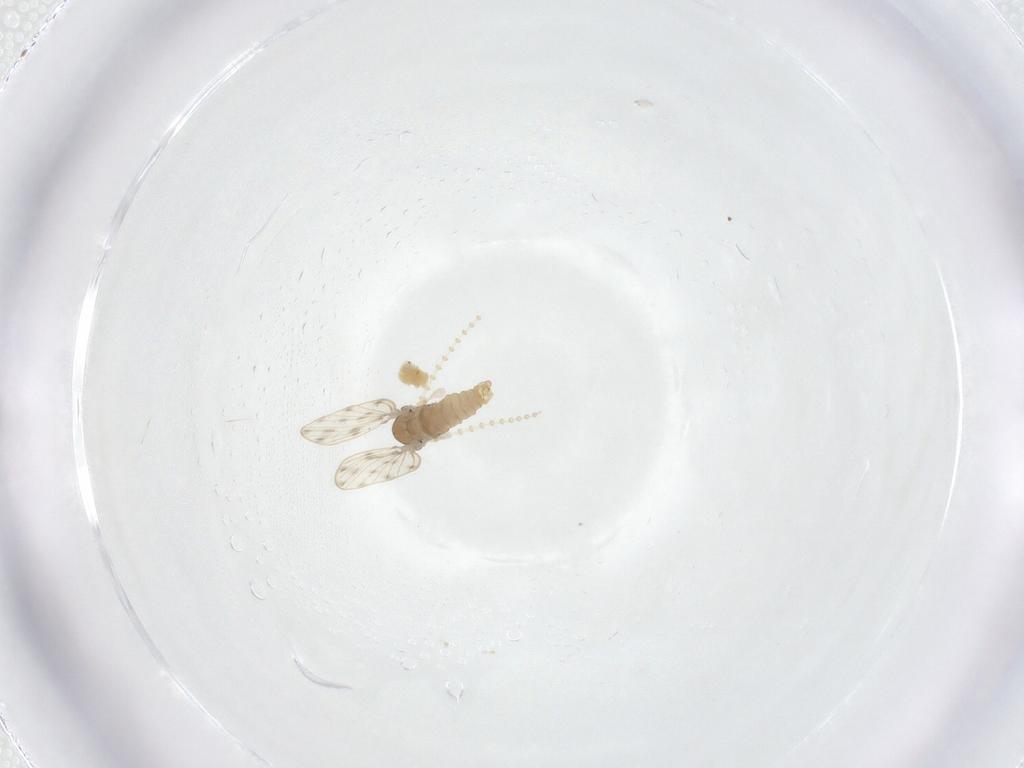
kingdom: Animalia
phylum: Arthropoda
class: Insecta
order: Diptera
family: Psychodidae
